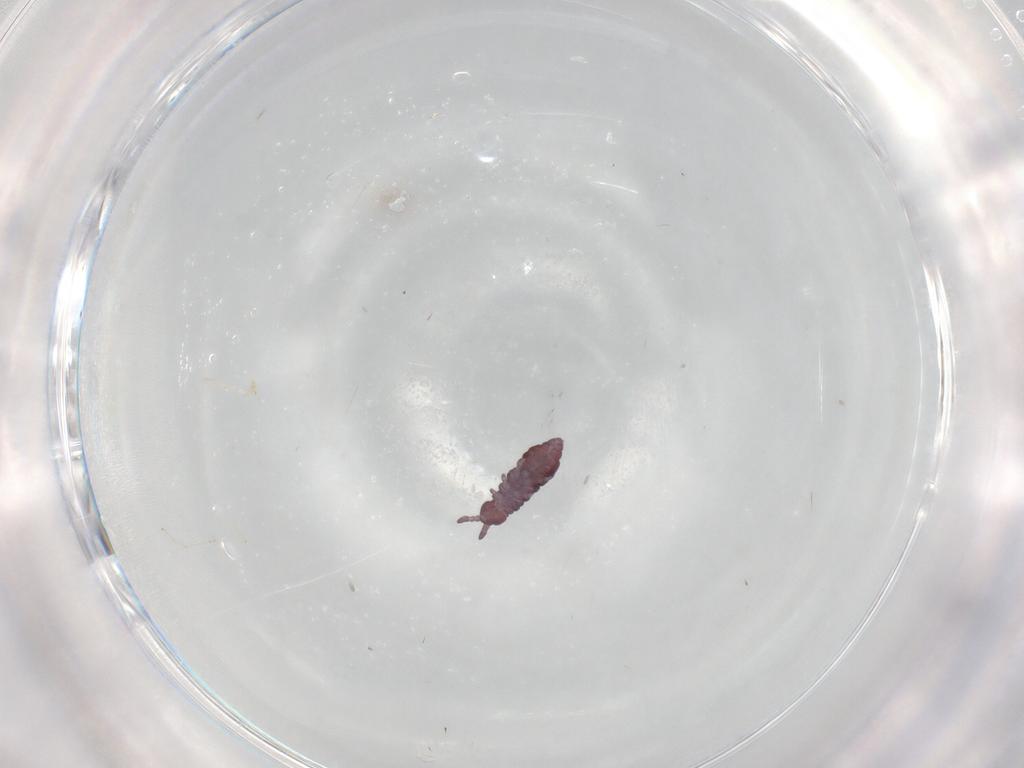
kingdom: Animalia
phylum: Arthropoda
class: Collembola
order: Poduromorpha
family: Hypogastruridae
